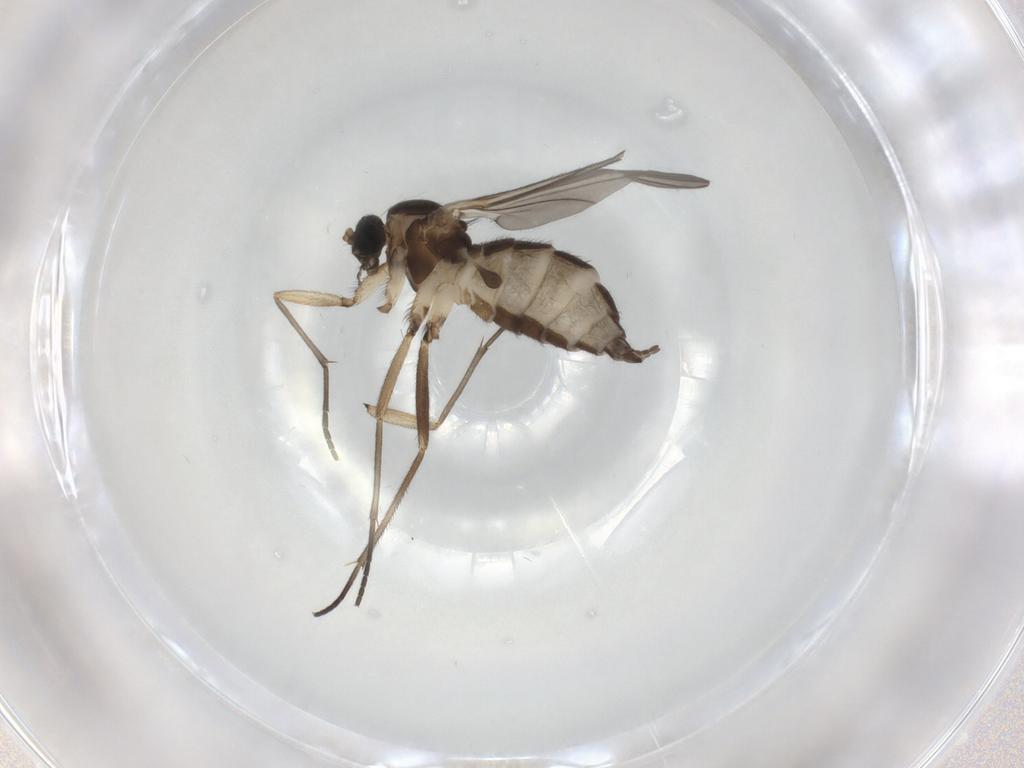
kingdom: Animalia
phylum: Arthropoda
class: Insecta
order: Diptera
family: Sciaridae
